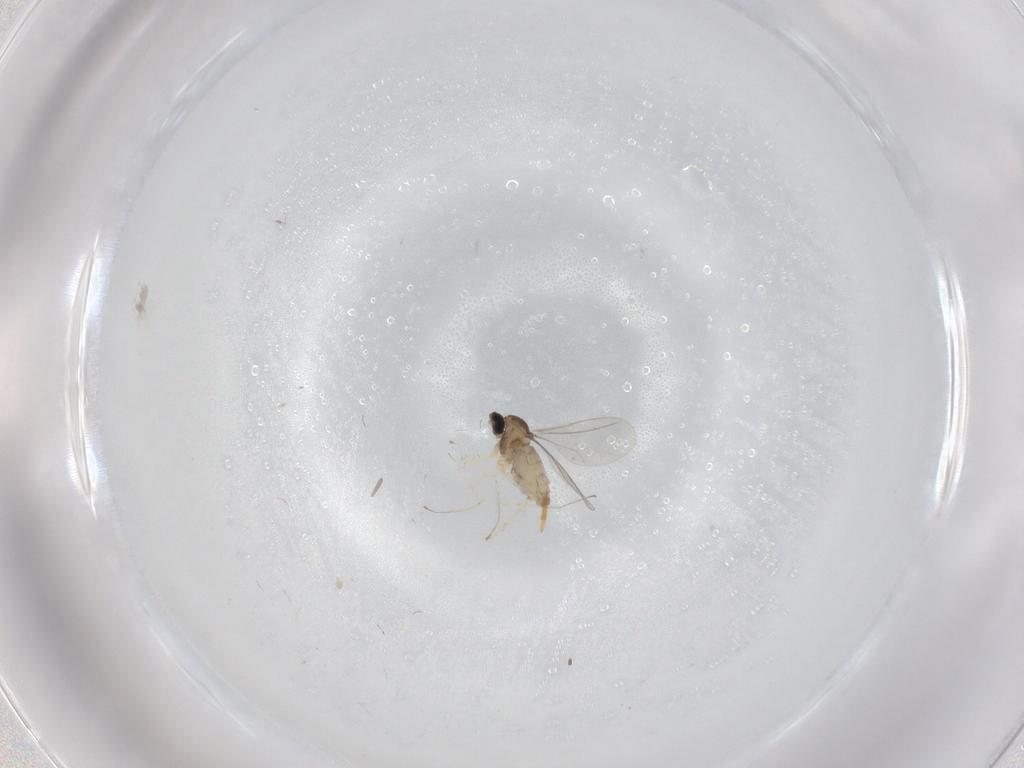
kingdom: Animalia
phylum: Arthropoda
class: Insecta
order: Diptera
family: Cecidomyiidae
